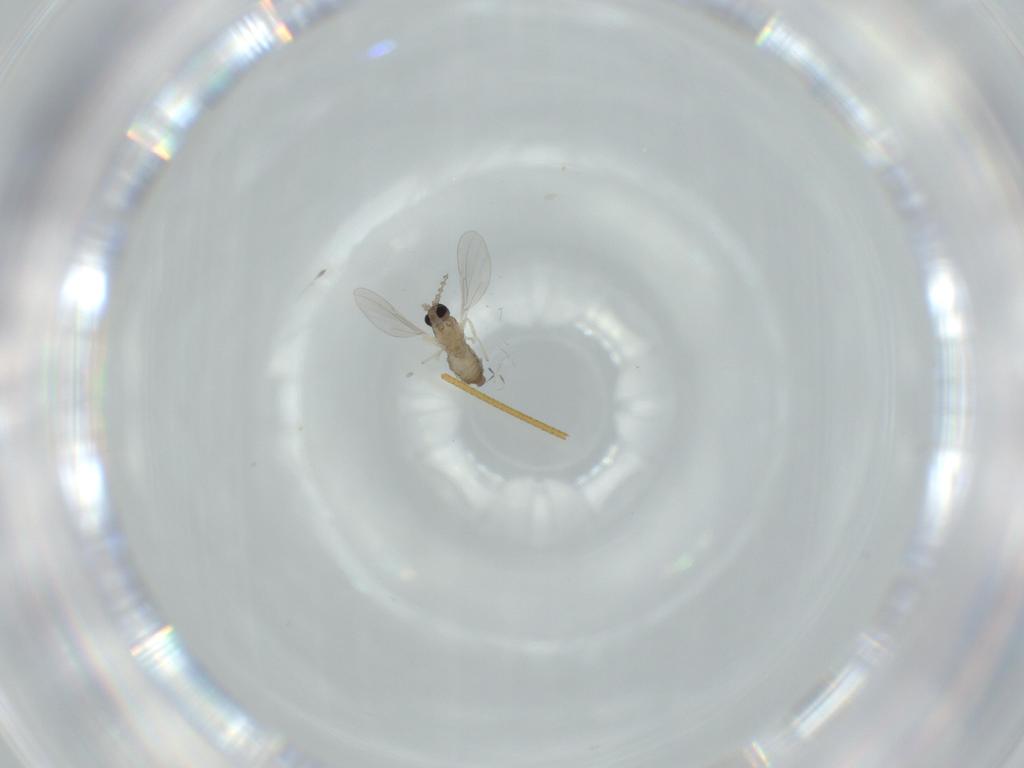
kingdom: Animalia
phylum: Arthropoda
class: Insecta
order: Diptera
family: Cecidomyiidae
